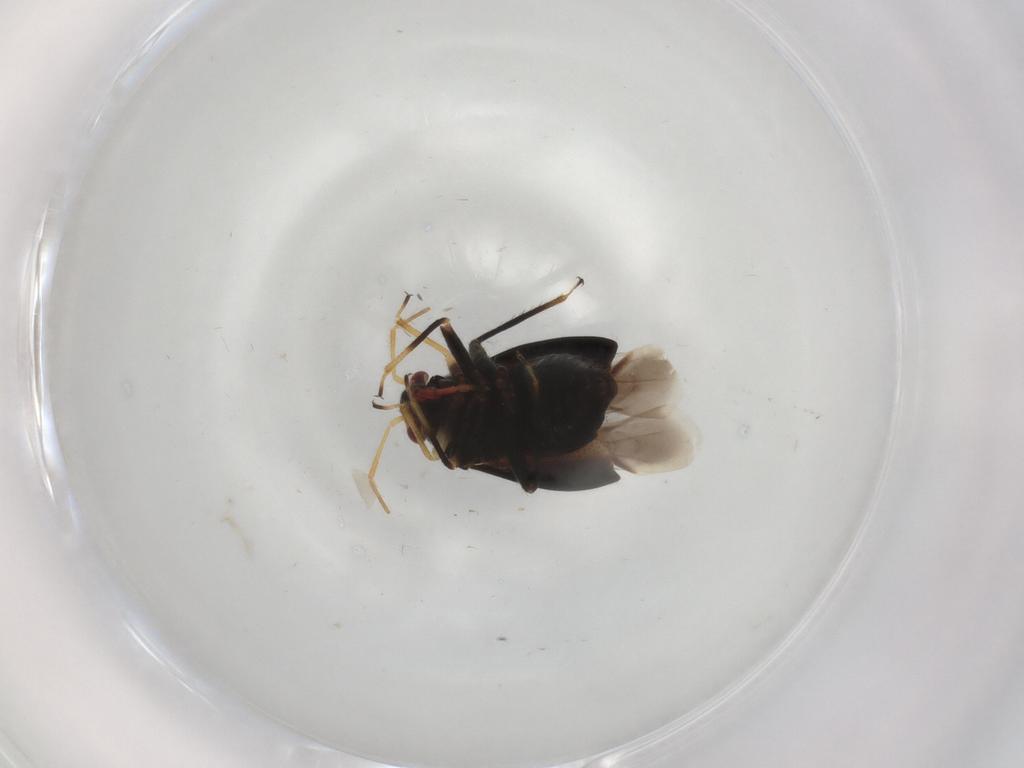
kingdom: Animalia
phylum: Arthropoda
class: Insecta
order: Hemiptera
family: Miridae
